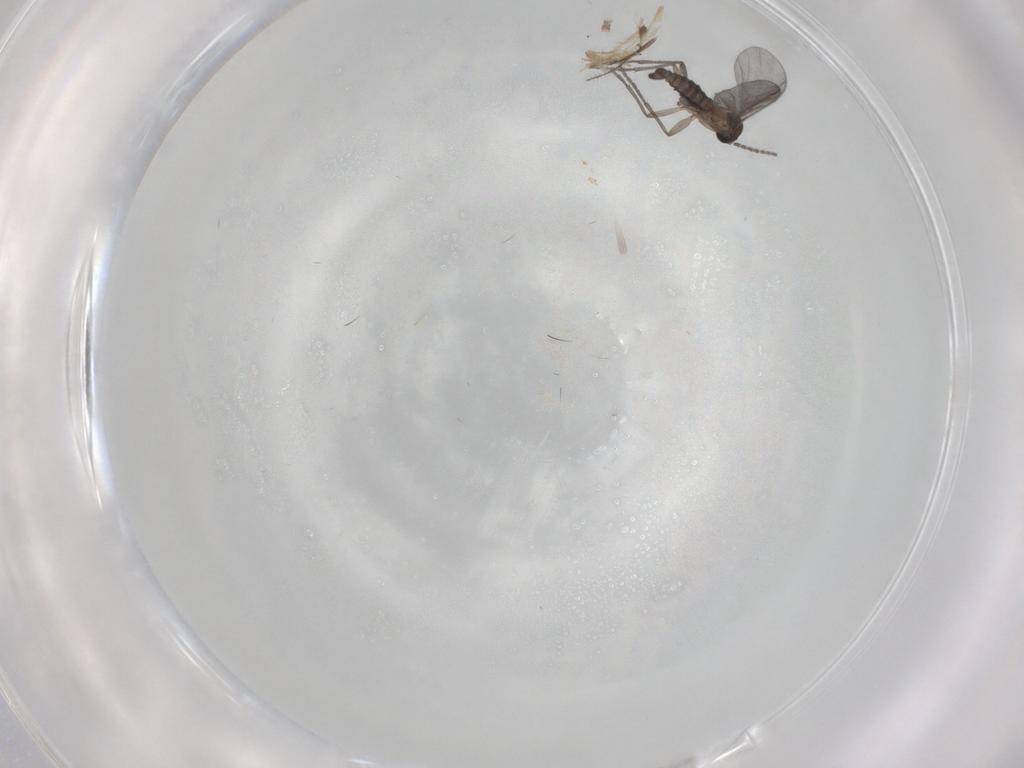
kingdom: Animalia
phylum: Arthropoda
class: Insecta
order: Diptera
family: Sciaridae
